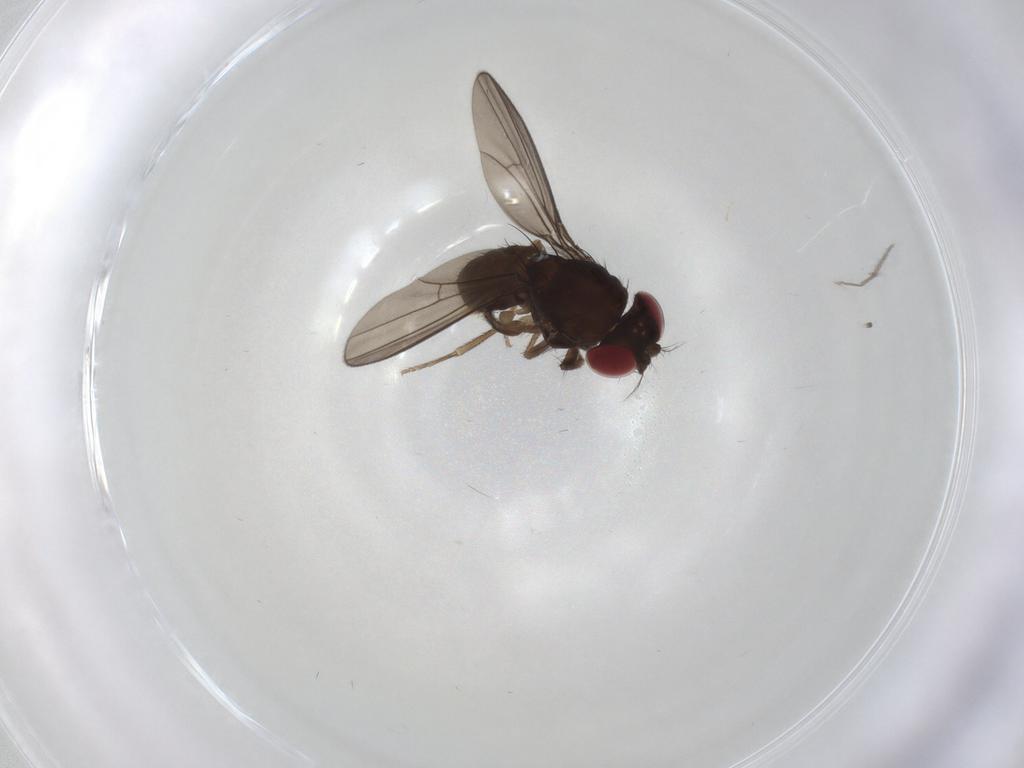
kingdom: Animalia
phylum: Arthropoda
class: Insecta
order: Diptera
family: Drosophilidae
